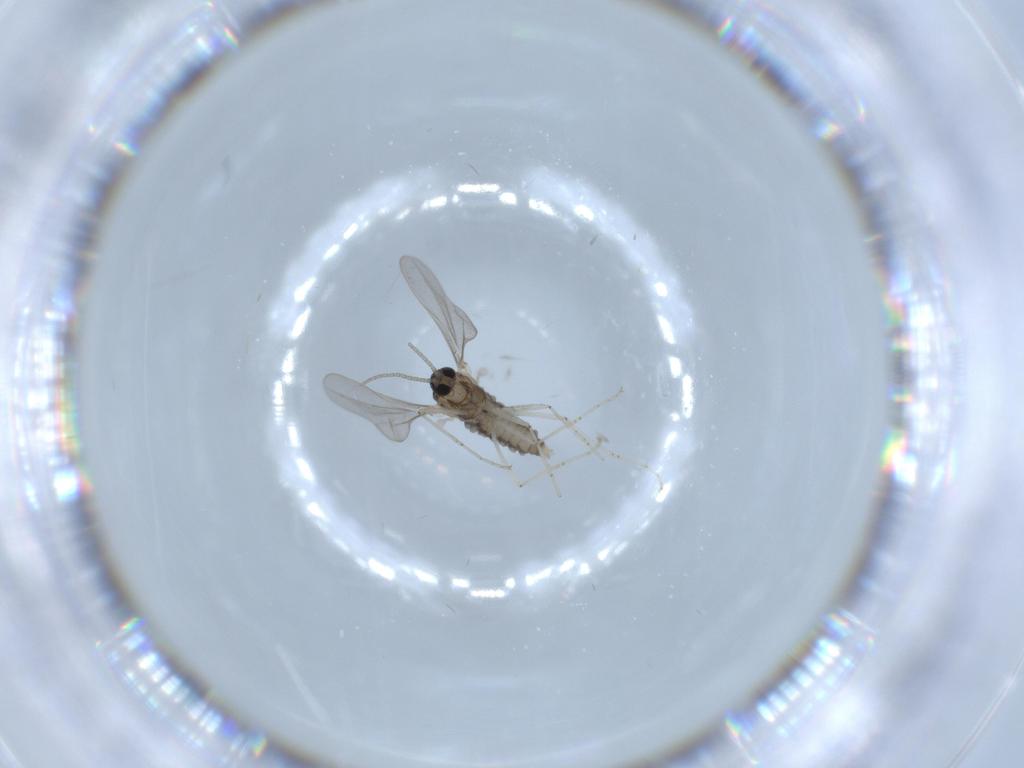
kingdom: Animalia
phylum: Arthropoda
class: Insecta
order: Diptera
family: Cecidomyiidae
